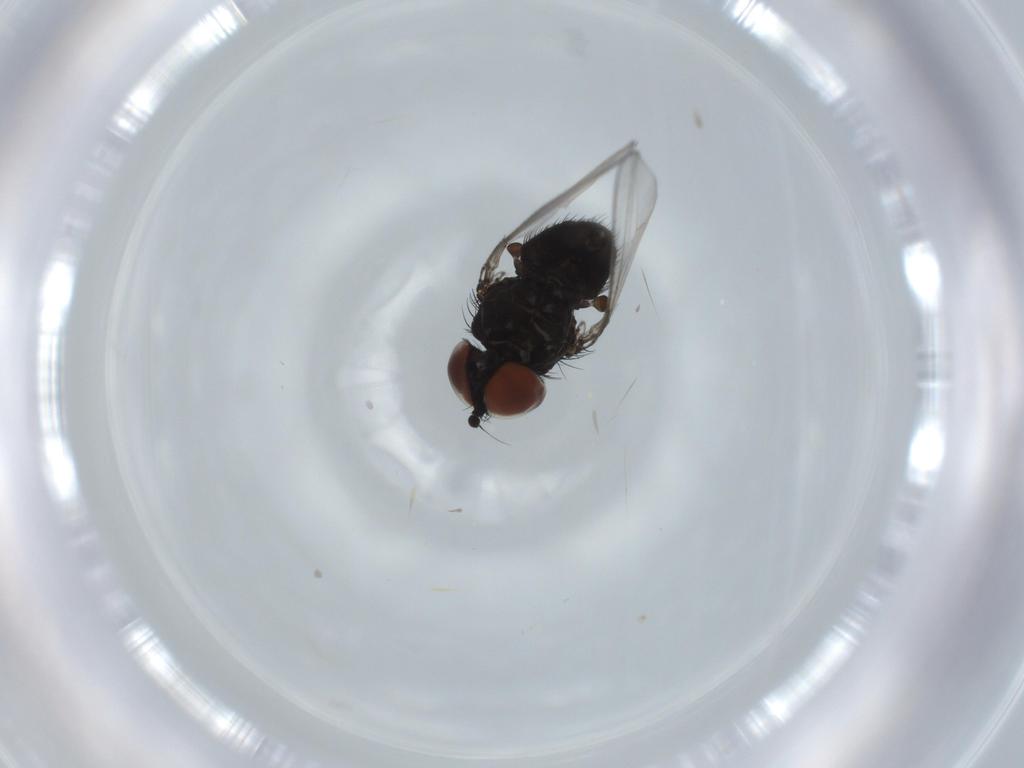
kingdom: Animalia
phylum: Arthropoda
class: Insecta
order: Diptera
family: Milichiidae
